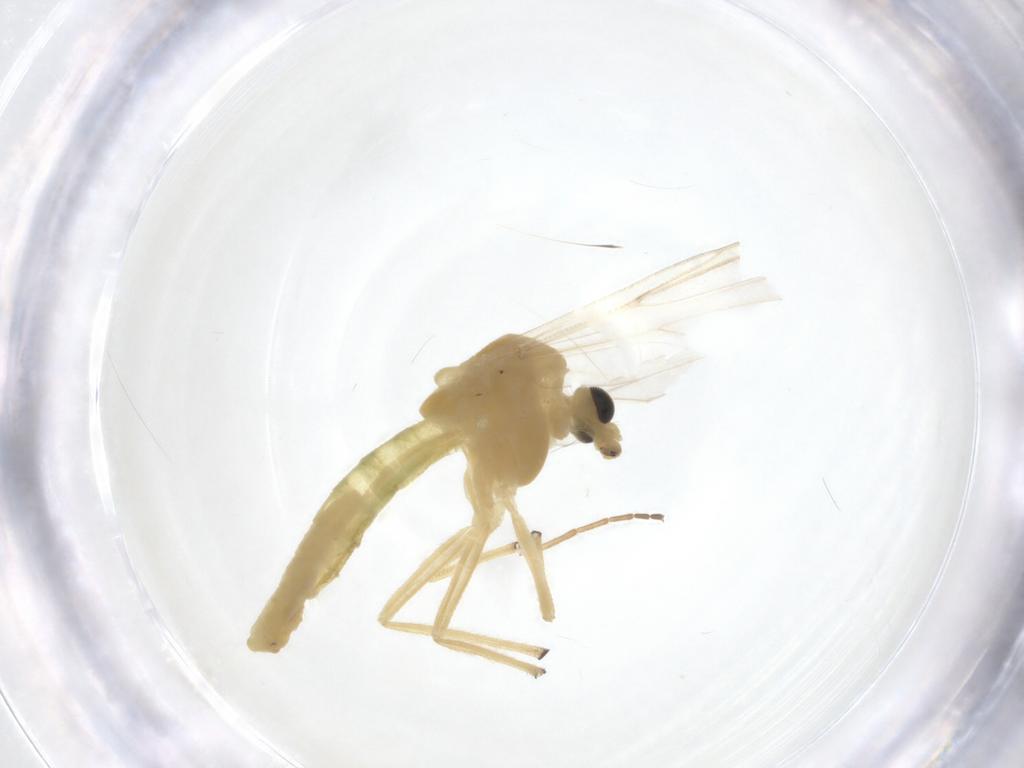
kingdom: Animalia
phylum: Arthropoda
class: Insecta
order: Diptera
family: Chironomidae
